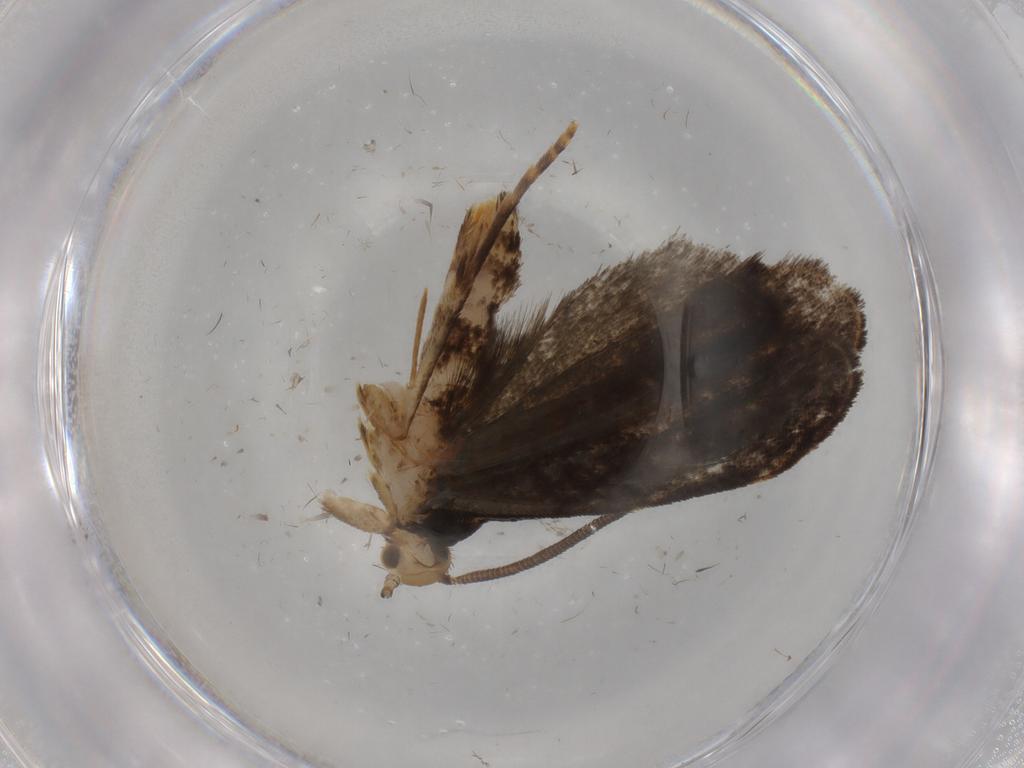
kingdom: Animalia
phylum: Arthropoda
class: Insecta
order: Lepidoptera
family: Dryadaulidae
